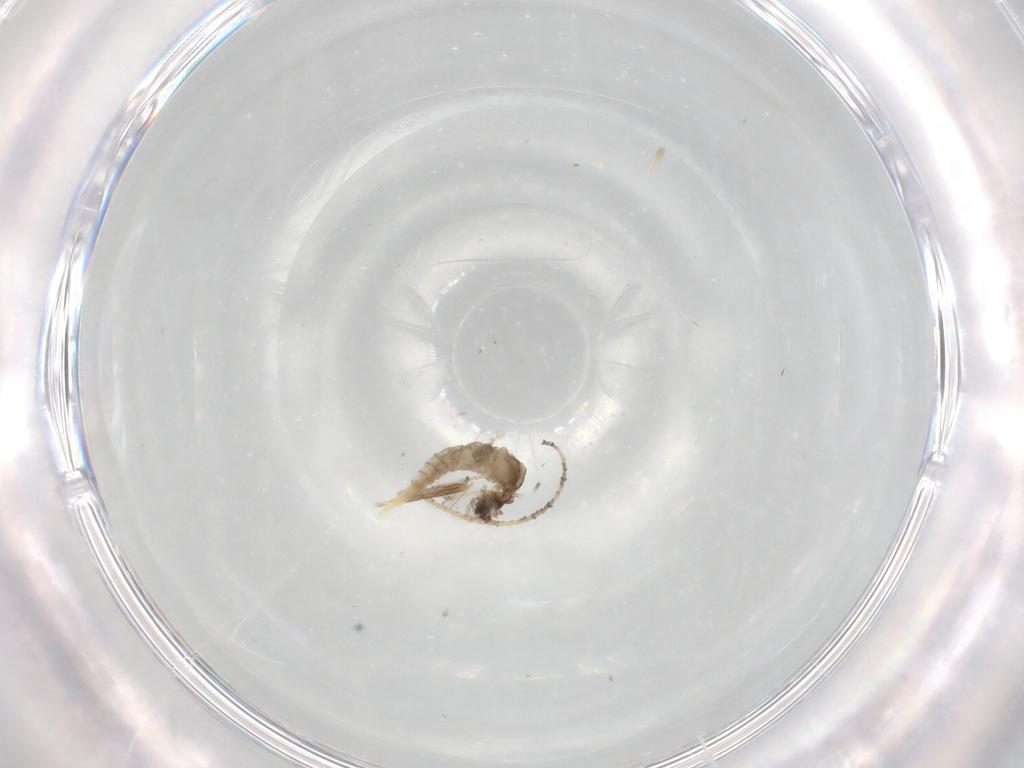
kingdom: Animalia
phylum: Arthropoda
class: Insecta
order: Diptera
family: Cecidomyiidae
